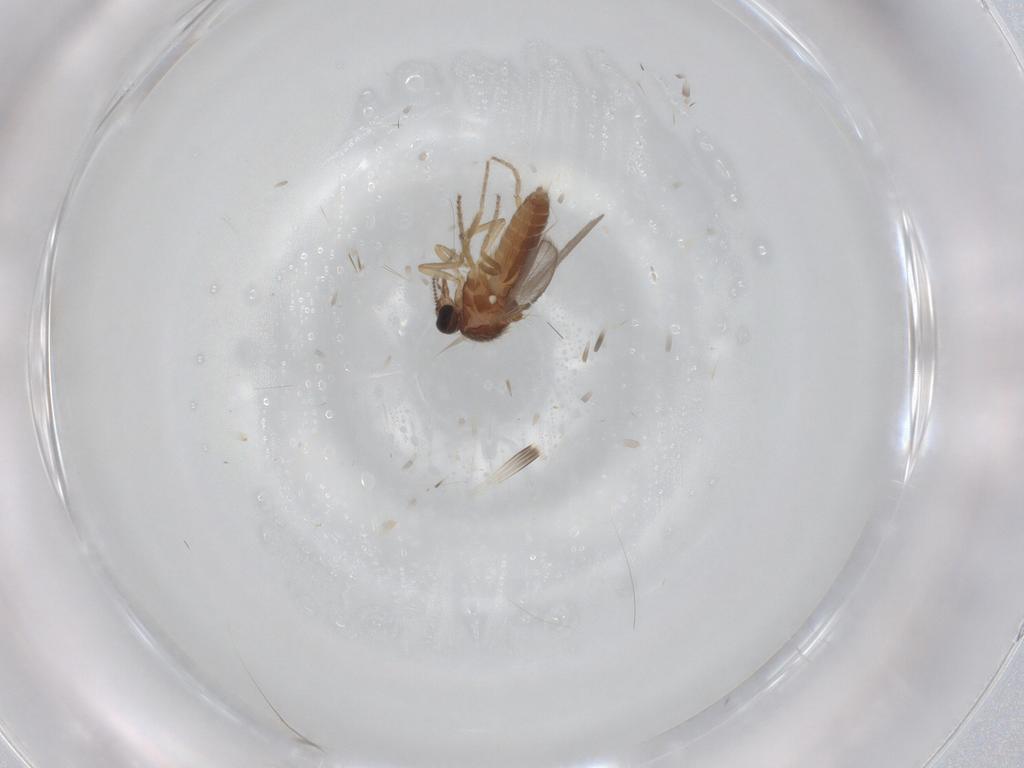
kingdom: Animalia
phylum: Arthropoda
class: Insecta
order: Diptera
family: Ceratopogonidae
